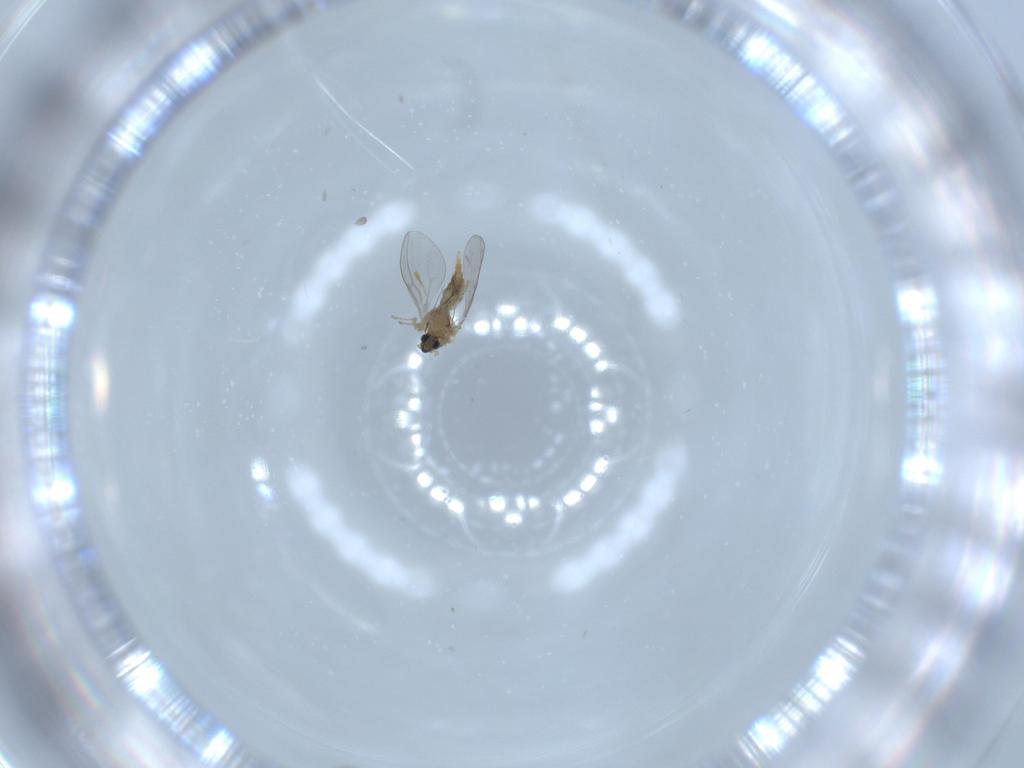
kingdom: Animalia
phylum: Arthropoda
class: Insecta
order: Diptera
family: Cecidomyiidae
